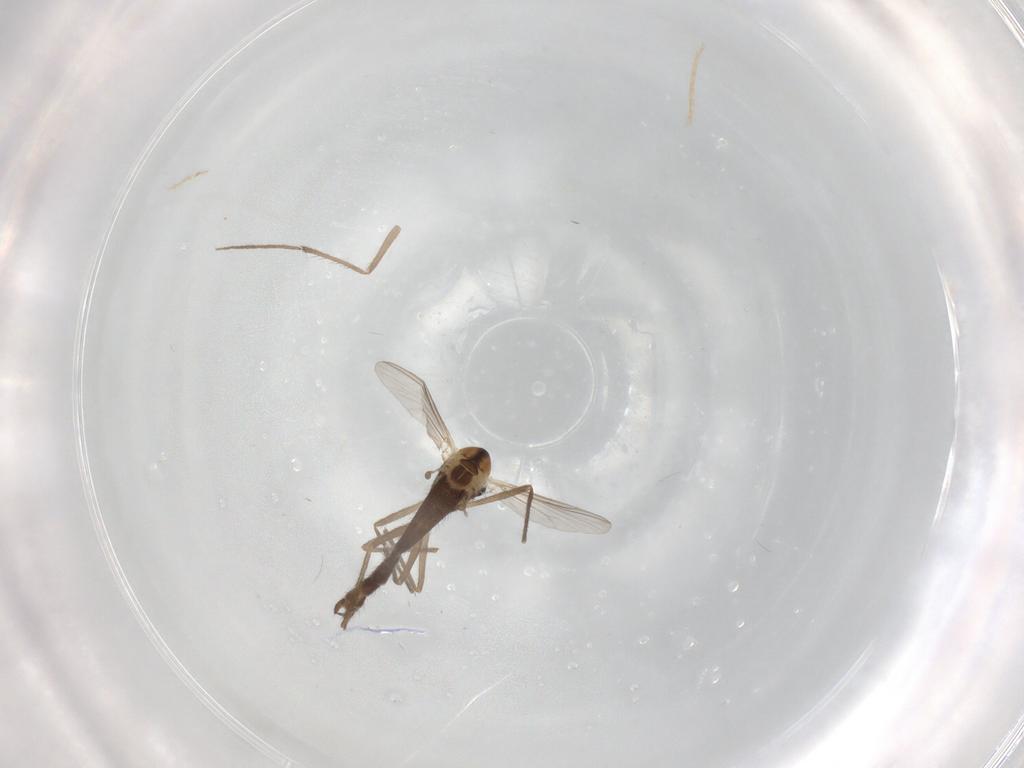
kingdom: Animalia
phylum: Arthropoda
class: Insecta
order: Diptera
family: Chironomidae
